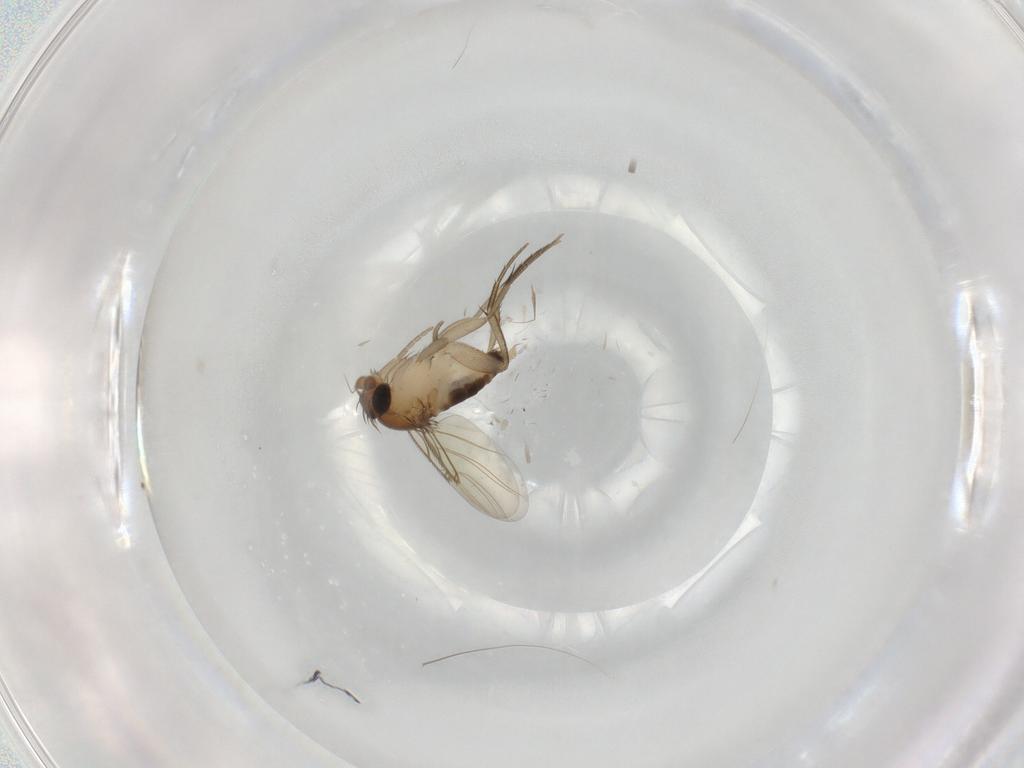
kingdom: Animalia
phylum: Arthropoda
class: Insecta
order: Diptera
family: Phoridae
